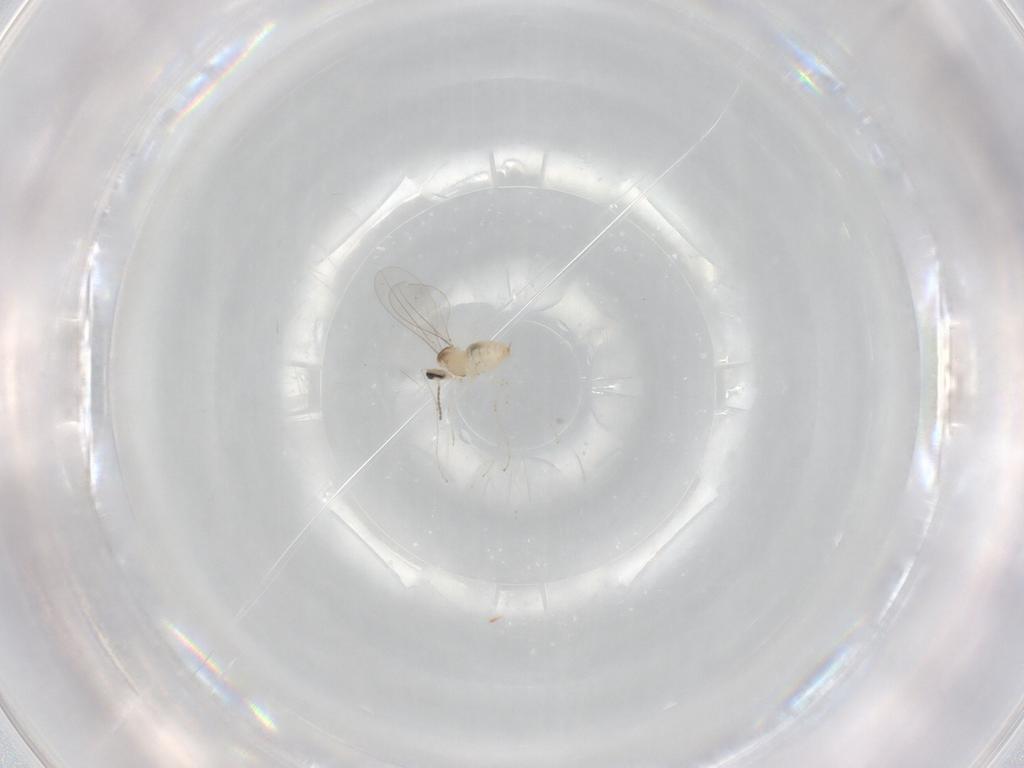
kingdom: Animalia
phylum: Arthropoda
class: Insecta
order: Diptera
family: Cecidomyiidae
